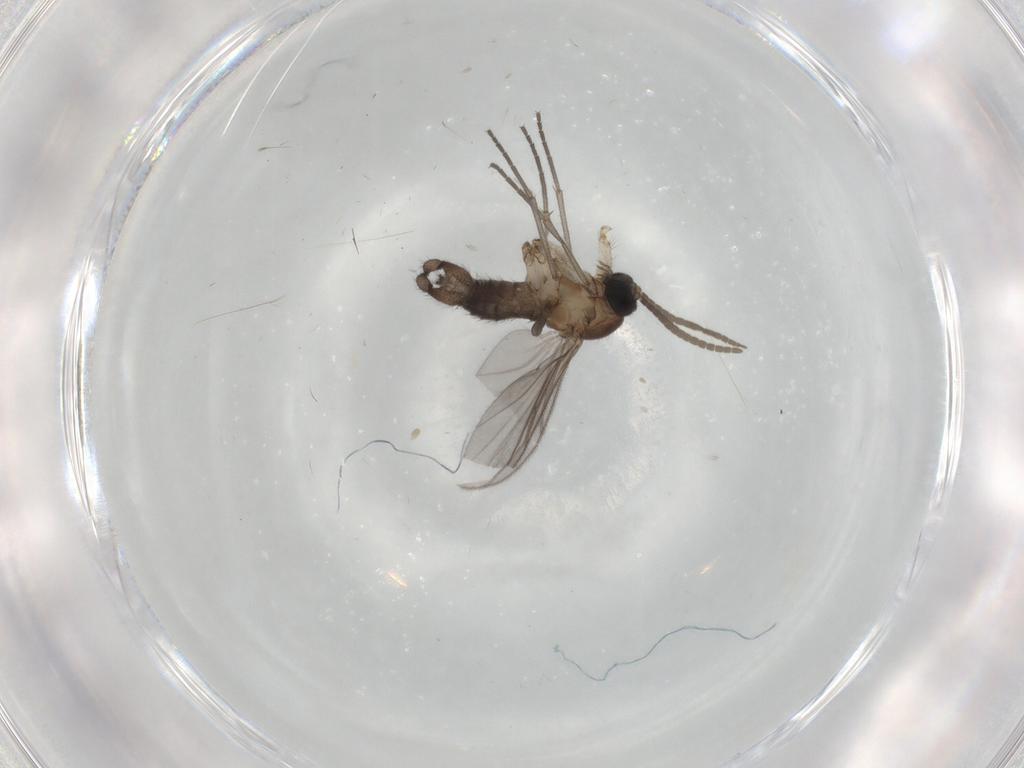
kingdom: Animalia
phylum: Arthropoda
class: Insecta
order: Diptera
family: Sciaridae
